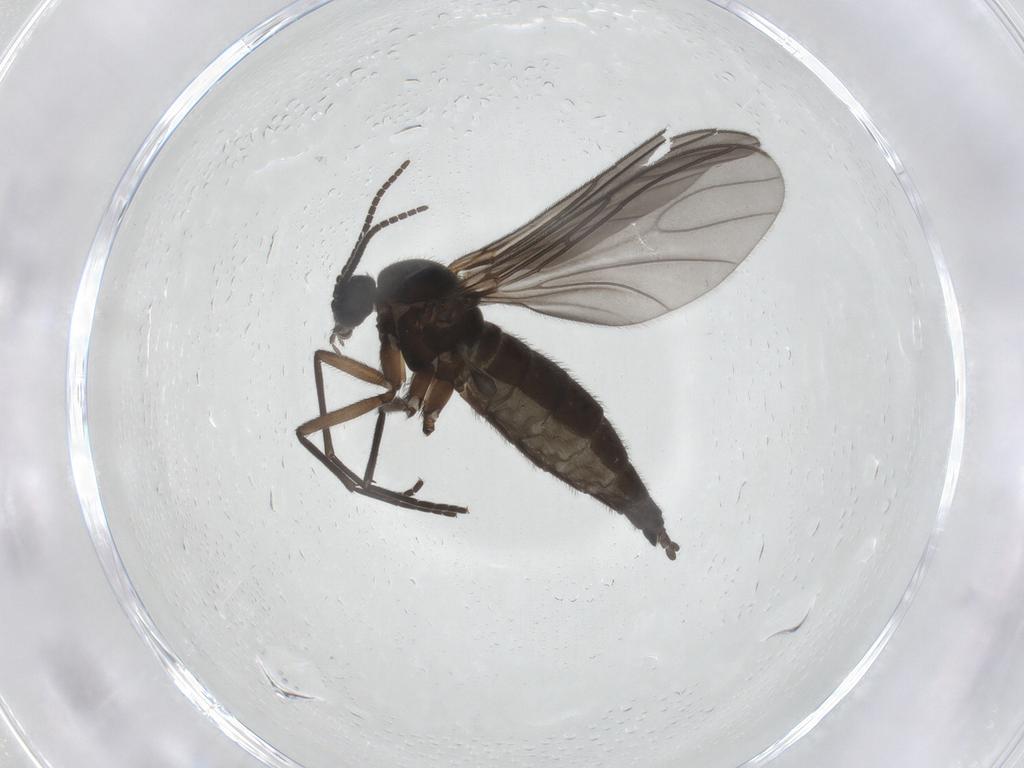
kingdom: Animalia
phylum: Arthropoda
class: Insecta
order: Diptera
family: Sciaridae
